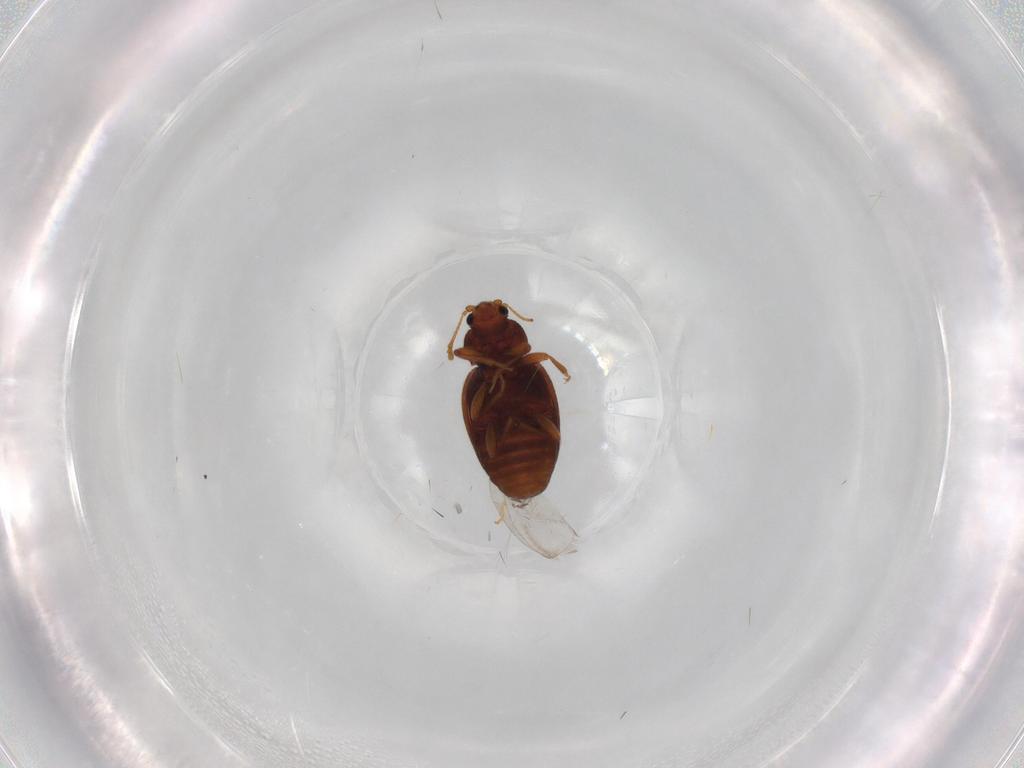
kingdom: Animalia
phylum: Arthropoda
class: Insecta
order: Coleoptera
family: Latridiidae
